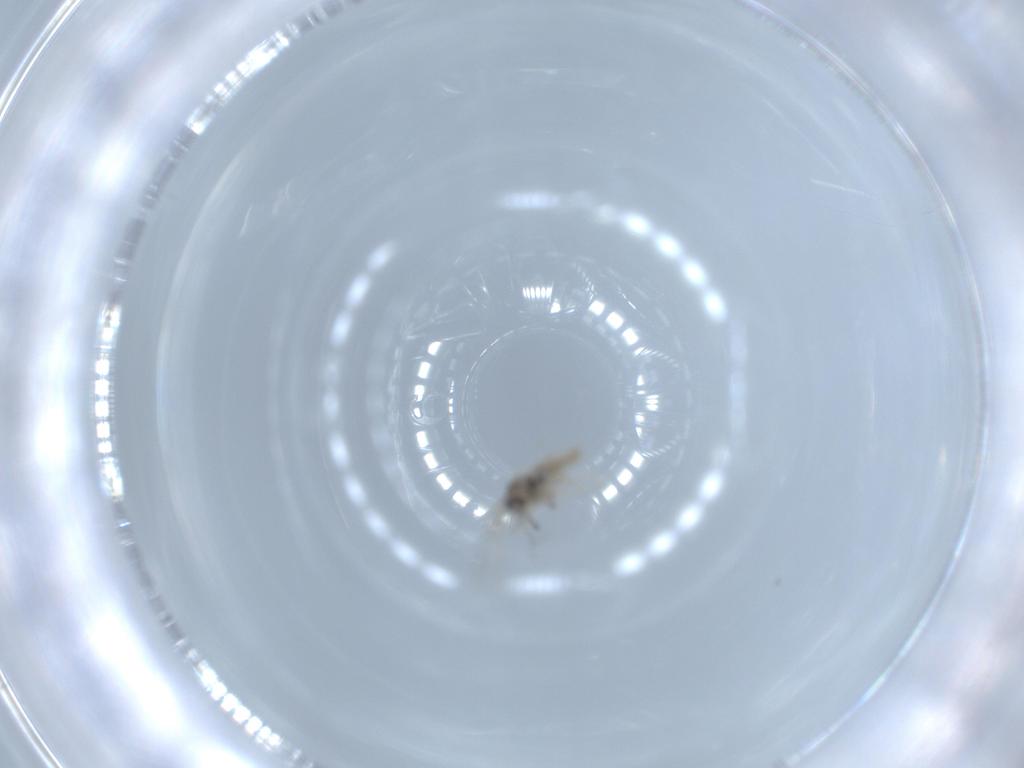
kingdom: Animalia
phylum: Arthropoda
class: Insecta
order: Diptera
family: Cecidomyiidae
